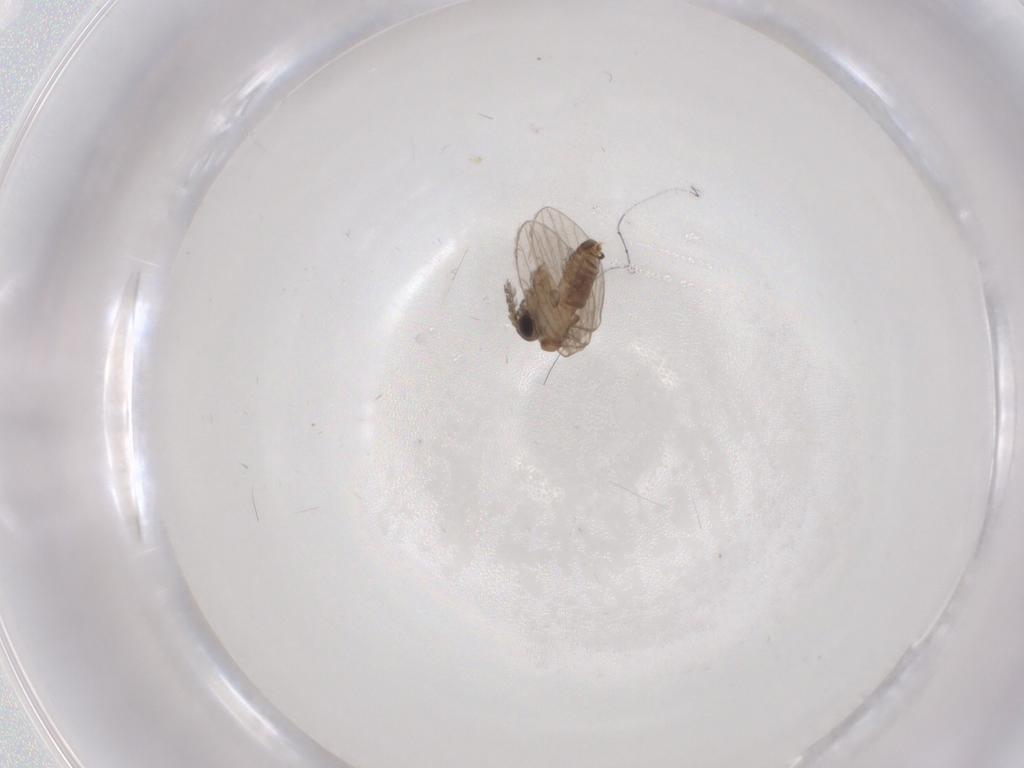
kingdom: Animalia
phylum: Arthropoda
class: Insecta
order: Diptera
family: Psychodidae
